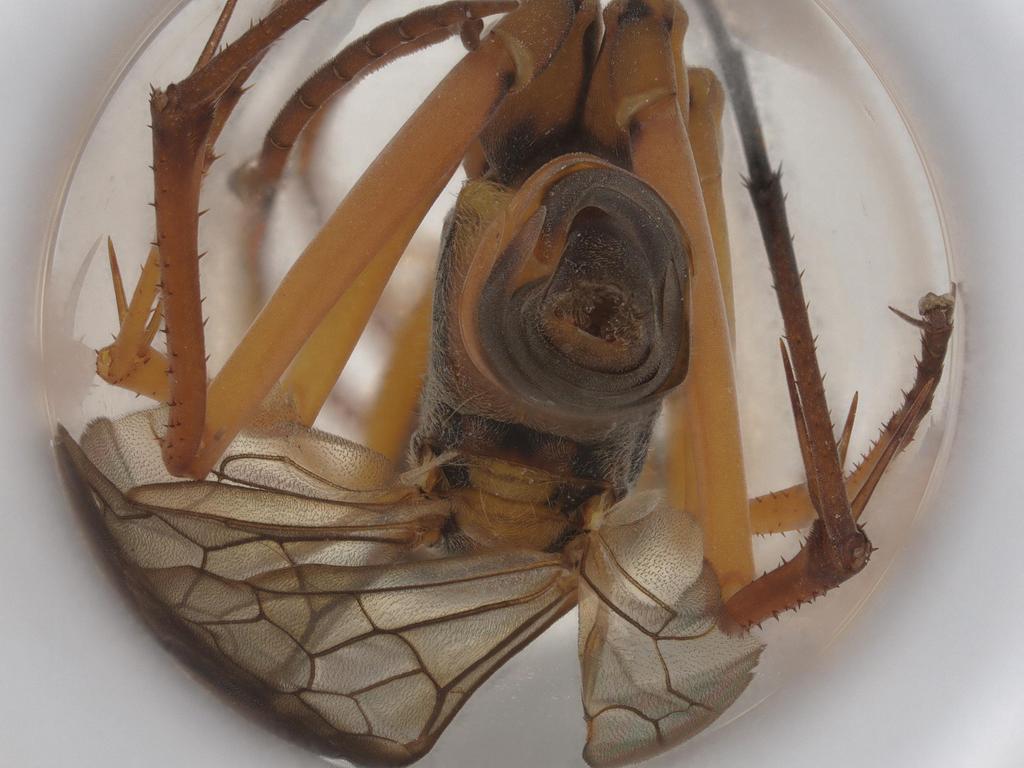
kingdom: Animalia
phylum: Arthropoda
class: Insecta
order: Hymenoptera
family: Pompilidae
